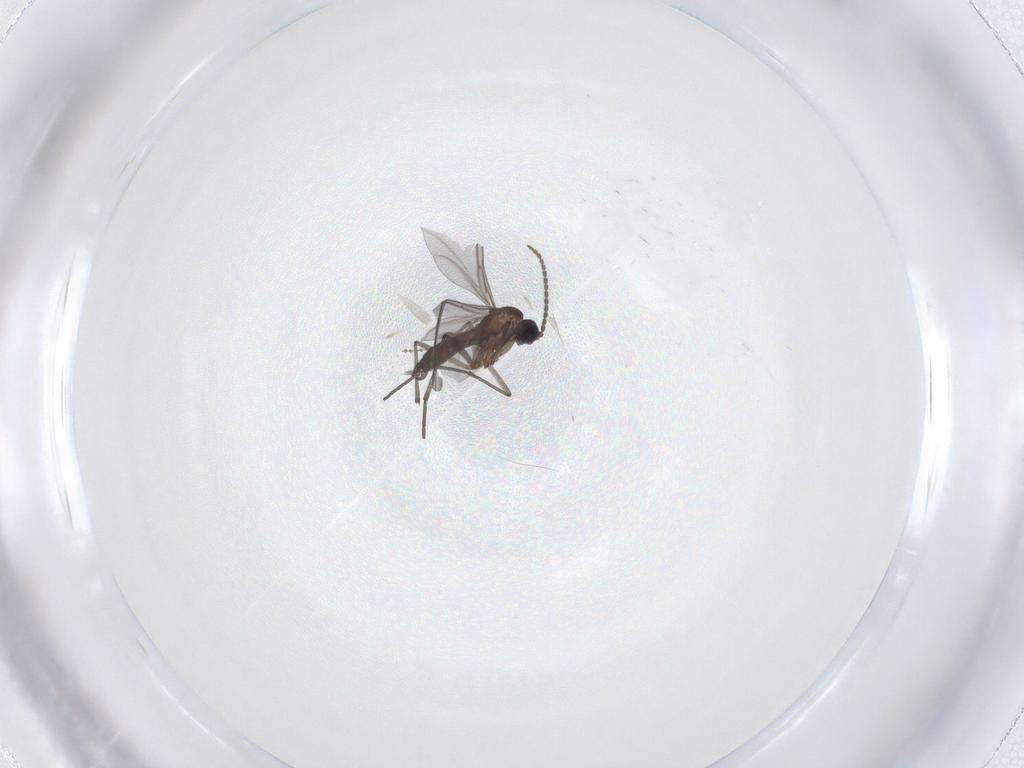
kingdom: Animalia
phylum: Arthropoda
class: Insecta
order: Diptera
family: Cecidomyiidae
